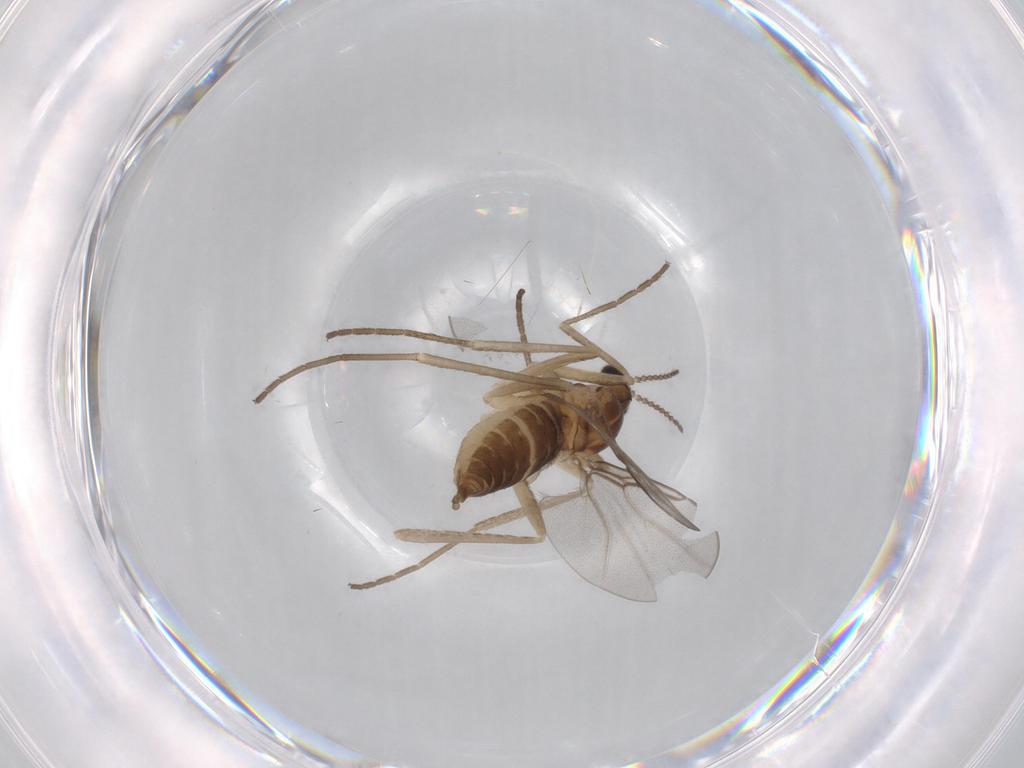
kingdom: Animalia
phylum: Arthropoda
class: Insecta
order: Diptera
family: Cecidomyiidae
